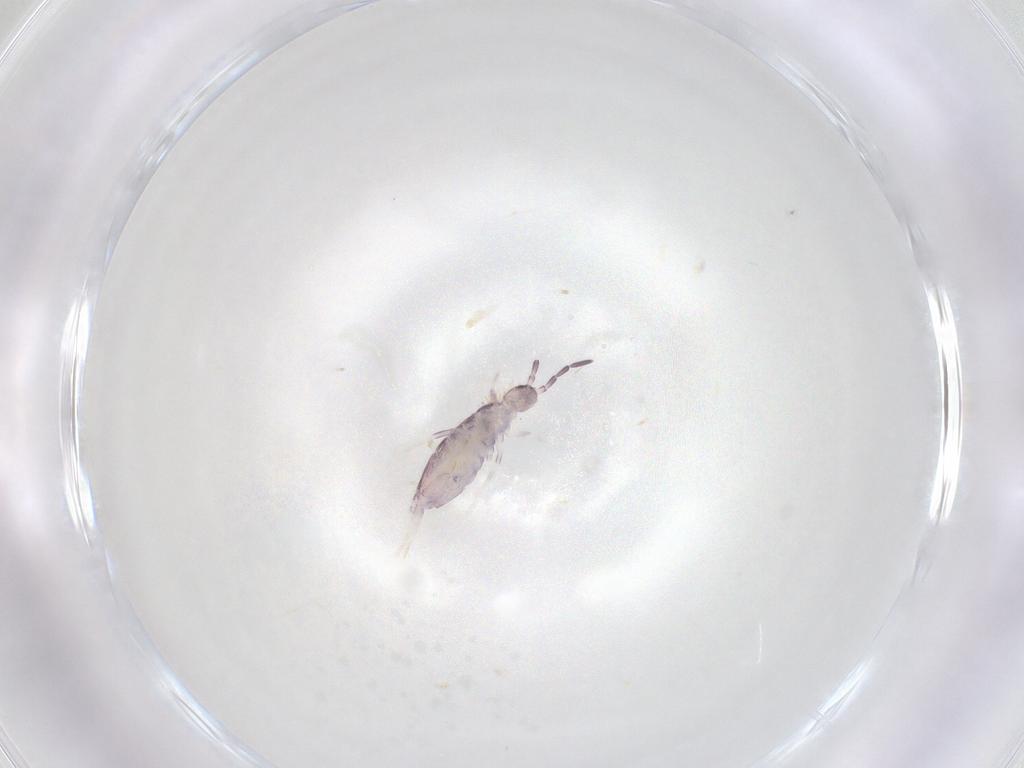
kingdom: Animalia
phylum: Arthropoda
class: Collembola
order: Poduromorpha
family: Hypogastruridae
